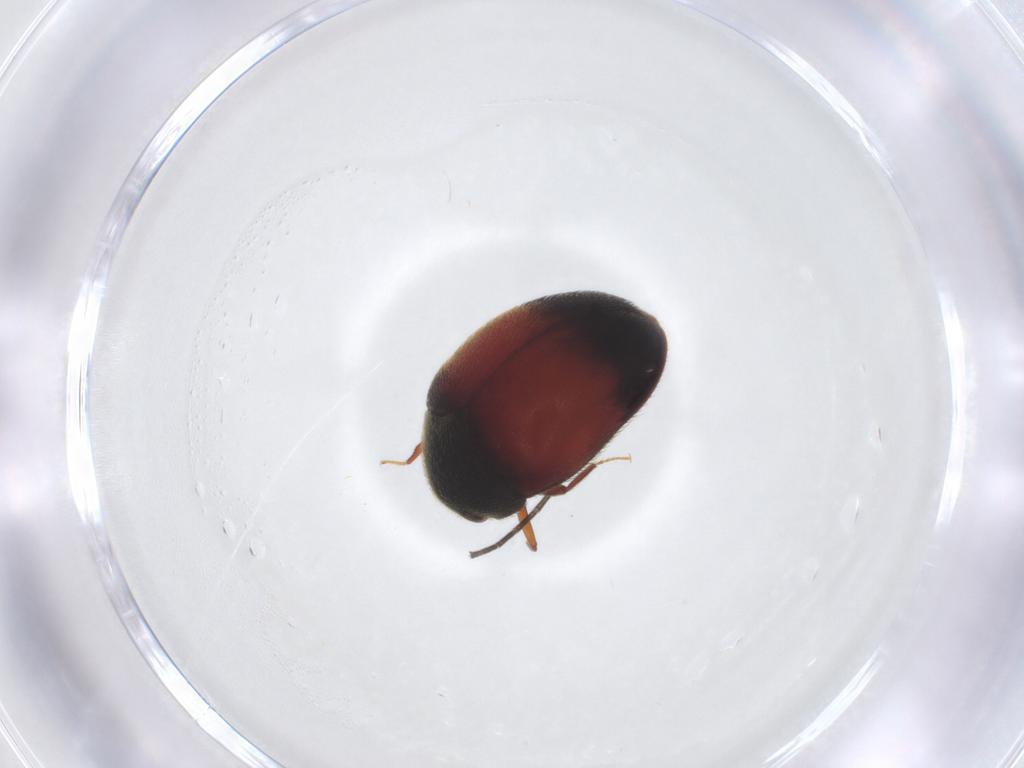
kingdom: Animalia
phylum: Arthropoda
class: Insecta
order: Coleoptera
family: Dermestidae
